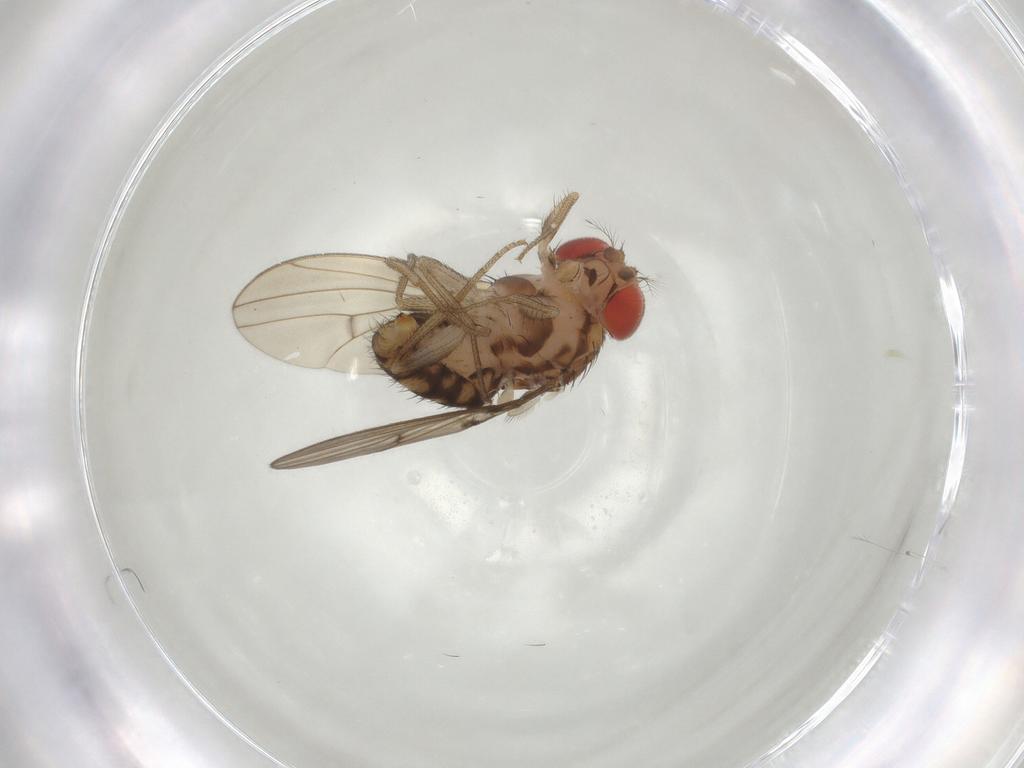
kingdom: Animalia
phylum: Arthropoda
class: Insecta
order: Diptera
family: Drosophilidae
